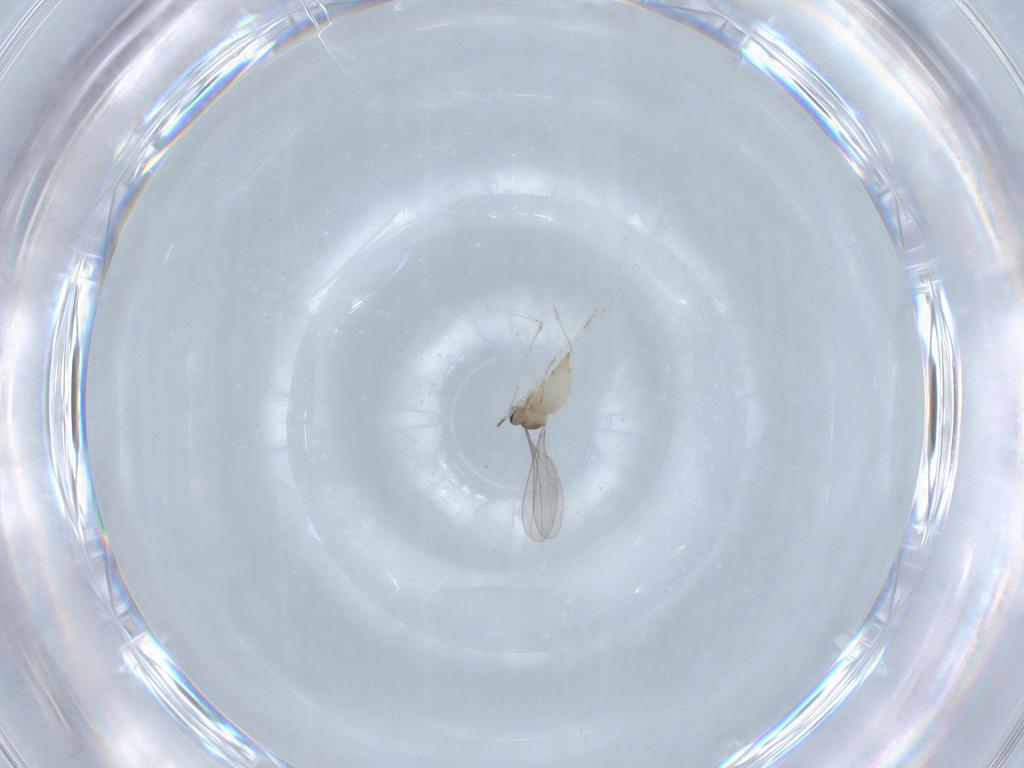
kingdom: Animalia
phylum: Arthropoda
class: Insecta
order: Diptera
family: Cecidomyiidae
